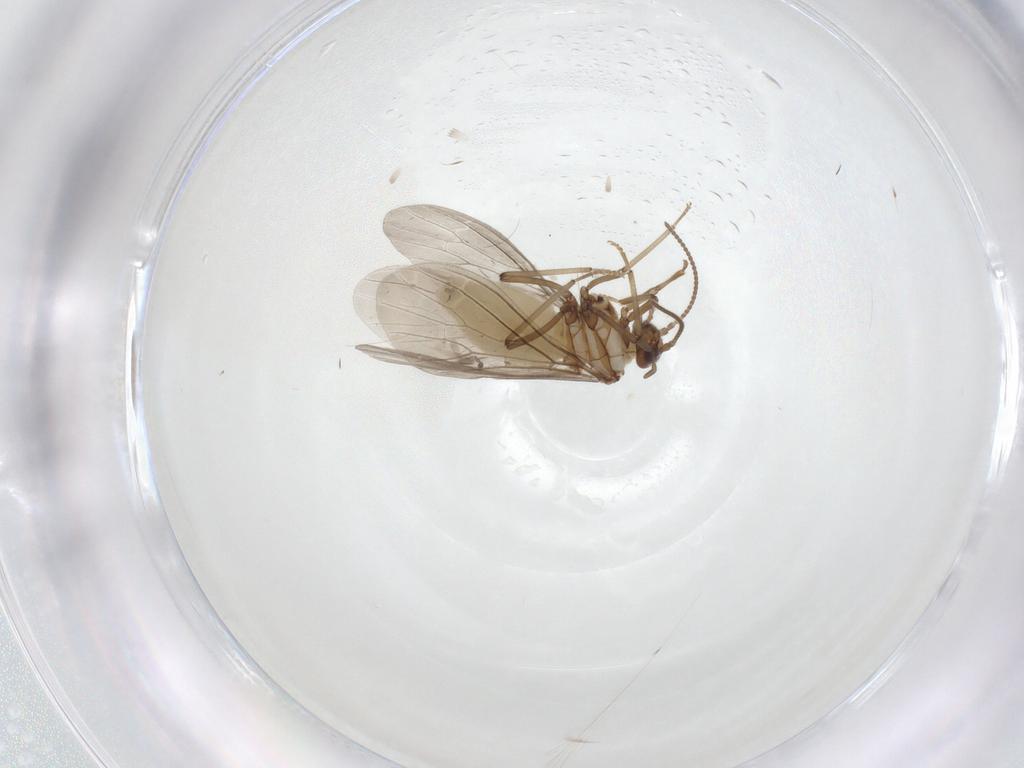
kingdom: Animalia
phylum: Arthropoda
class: Insecta
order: Neuroptera
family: Coniopterygidae
